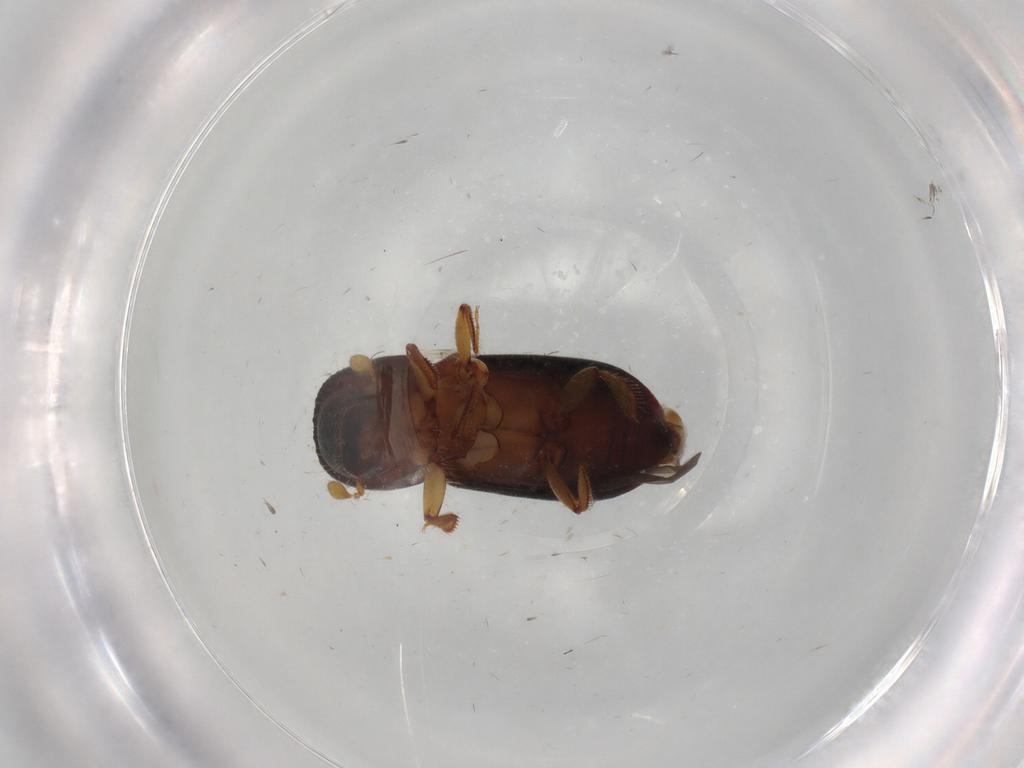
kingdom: Animalia
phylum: Arthropoda
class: Insecta
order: Coleoptera
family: Curculionidae
